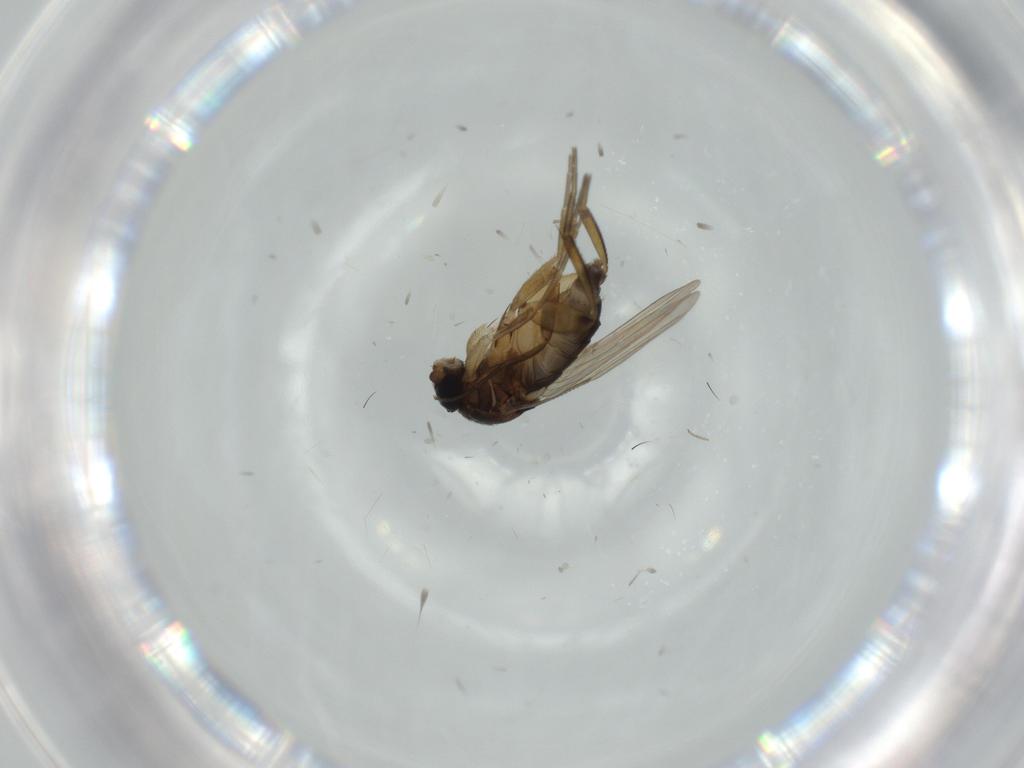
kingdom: Animalia
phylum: Arthropoda
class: Insecta
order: Diptera
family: Phoridae
